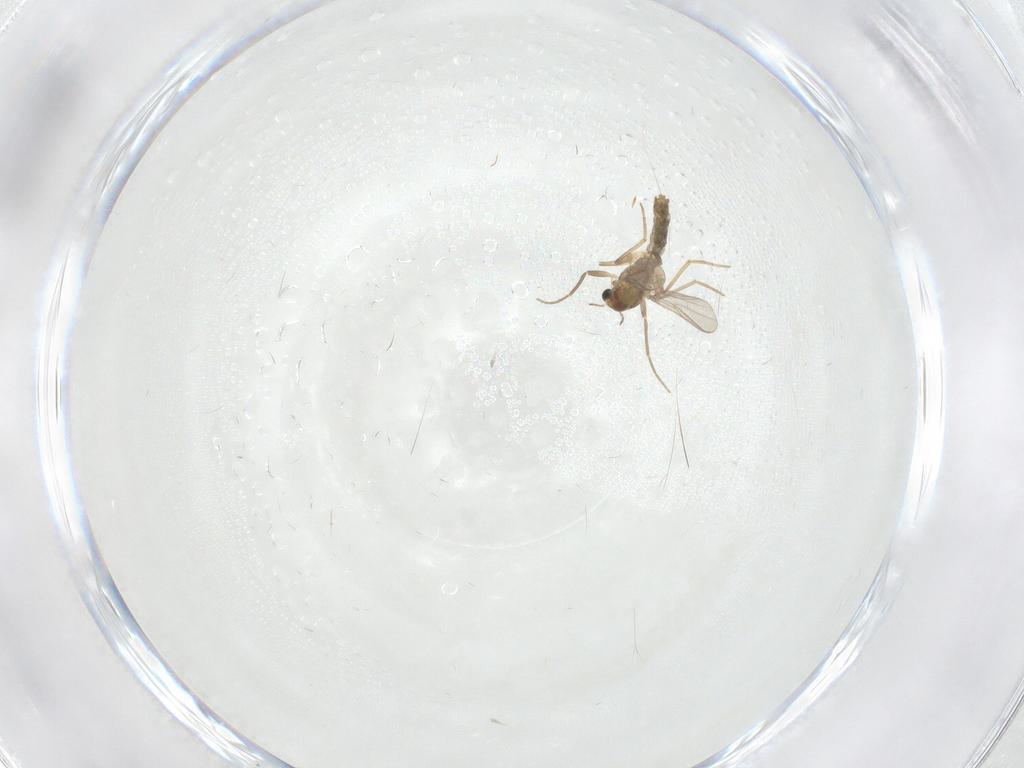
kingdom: Animalia
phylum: Arthropoda
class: Insecta
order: Diptera
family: Chironomidae
